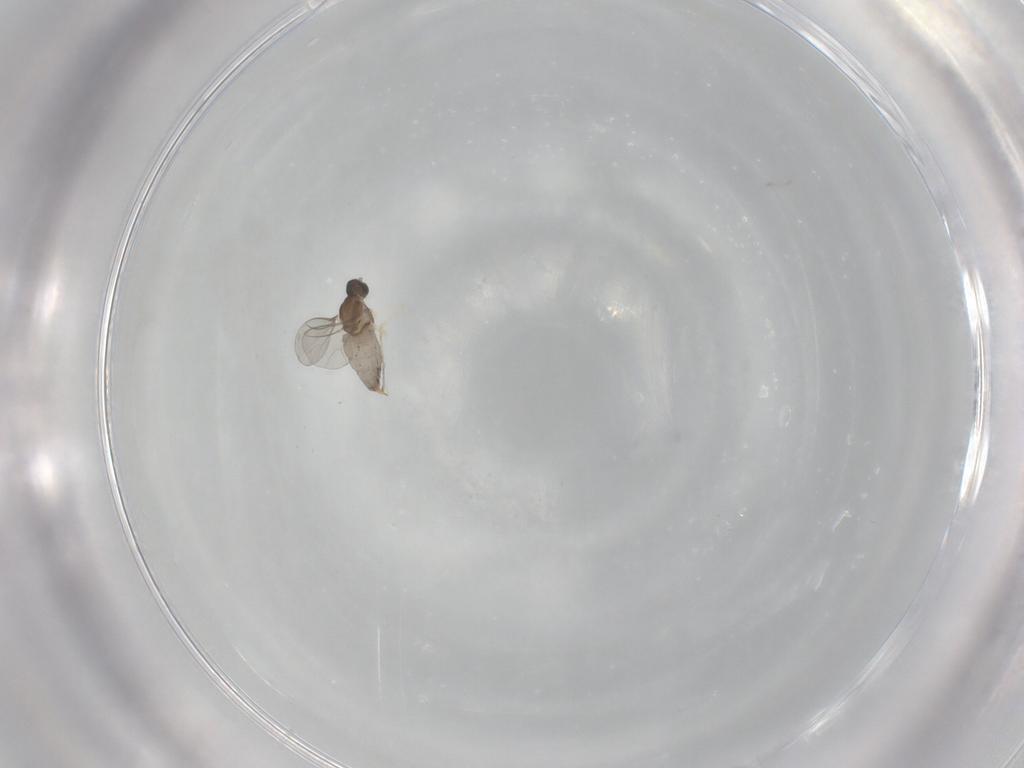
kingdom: Animalia
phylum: Arthropoda
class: Insecta
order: Diptera
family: Cecidomyiidae
